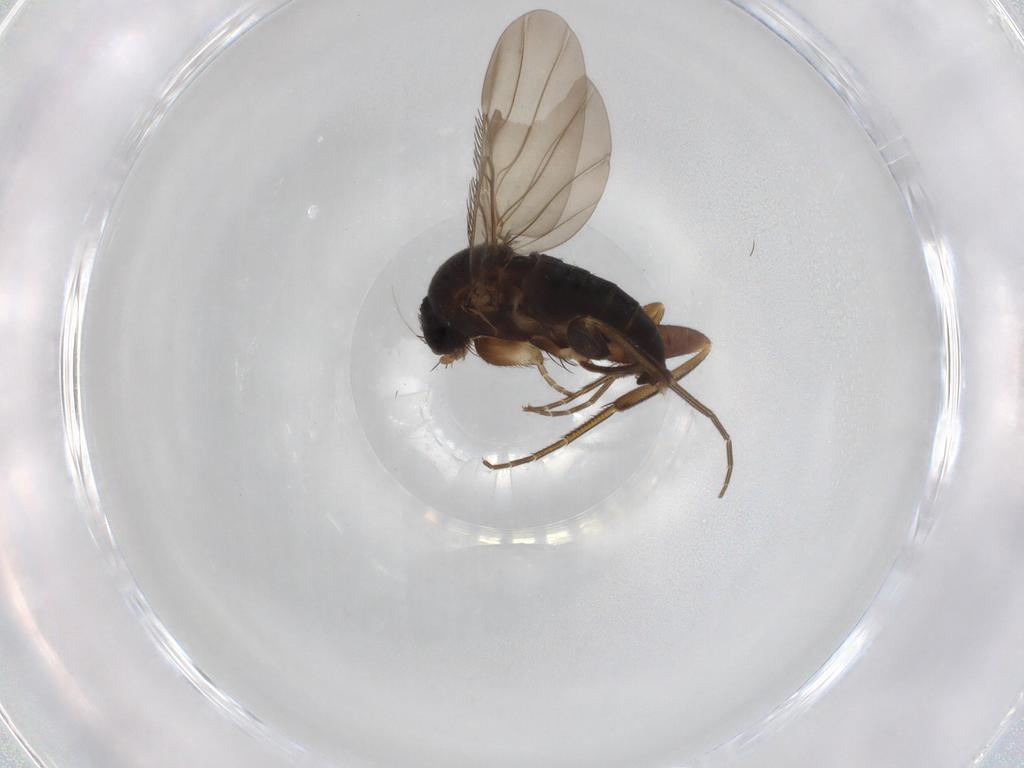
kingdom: Animalia
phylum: Arthropoda
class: Insecta
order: Diptera
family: Phoridae
